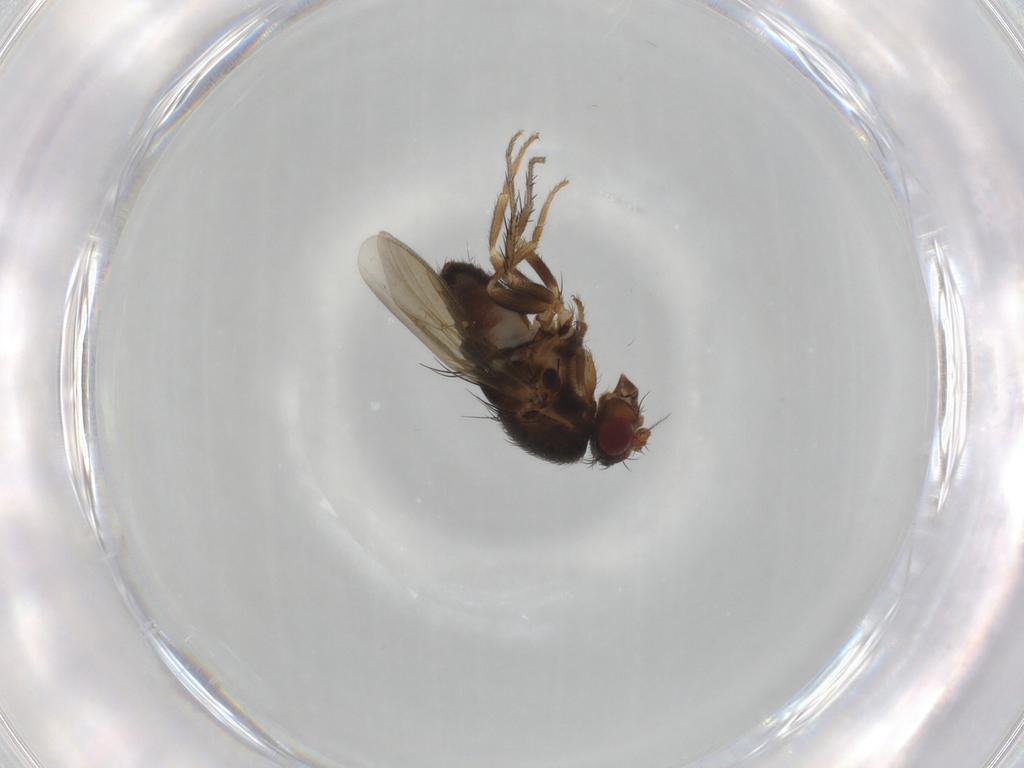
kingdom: Animalia
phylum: Arthropoda
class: Insecta
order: Diptera
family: Sphaeroceridae
